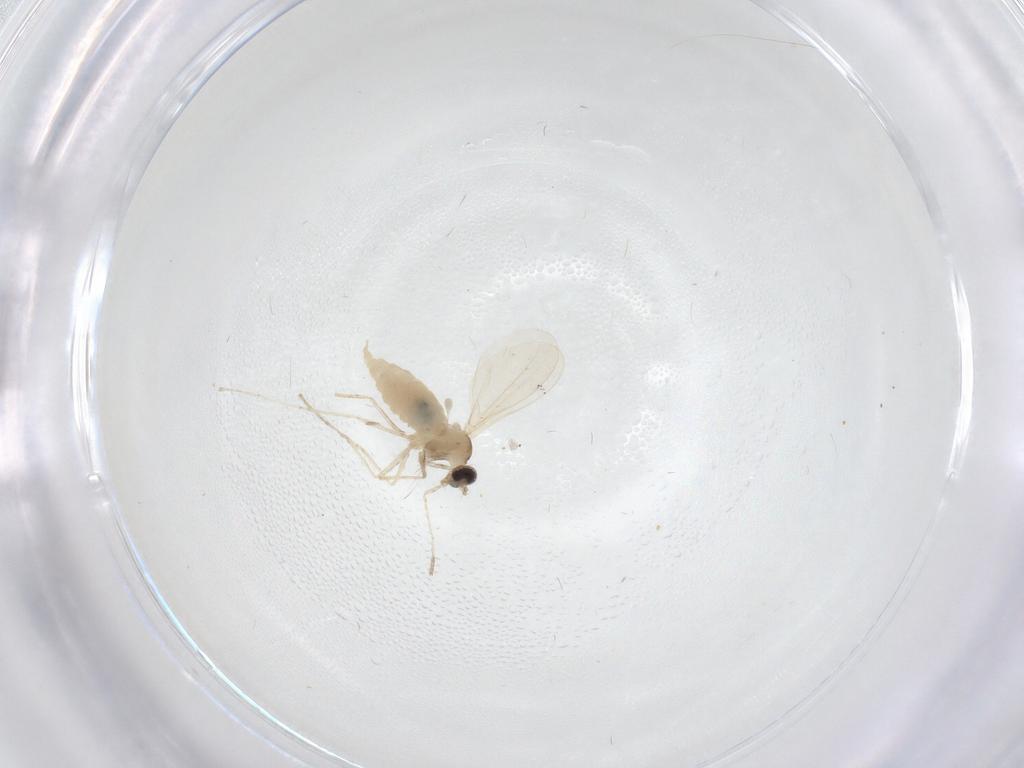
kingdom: Animalia
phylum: Arthropoda
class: Insecta
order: Diptera
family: Cecidomyiidae
